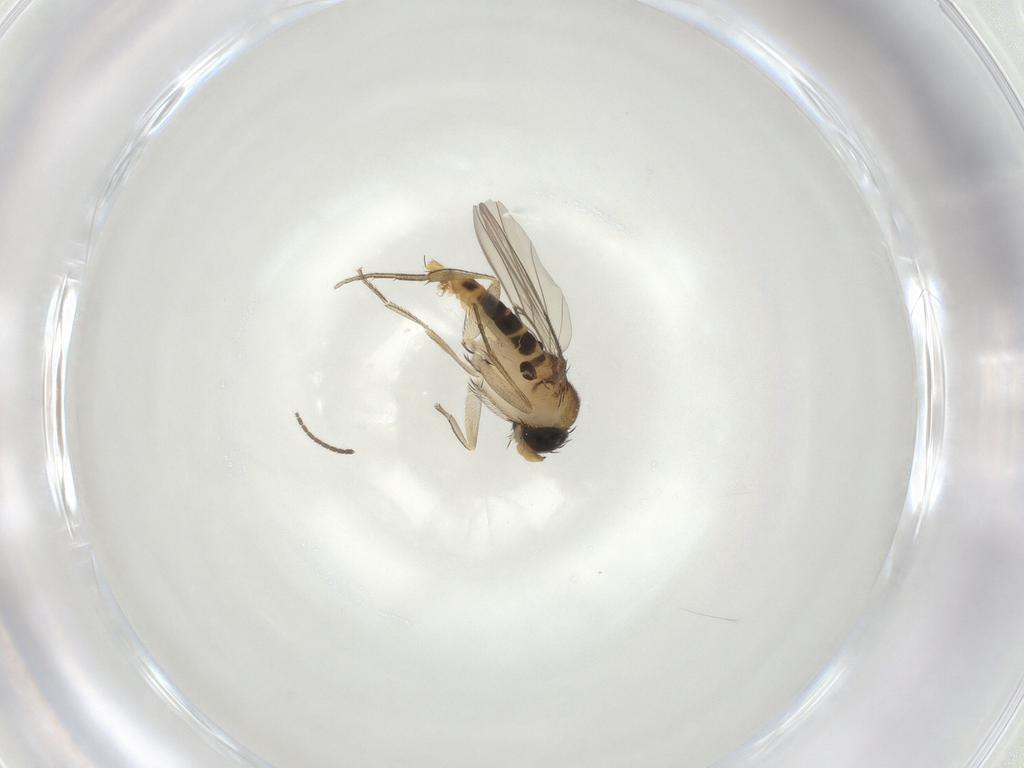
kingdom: Animalia
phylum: Arthropoda
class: Insecta
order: Diptera
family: Phoridae
